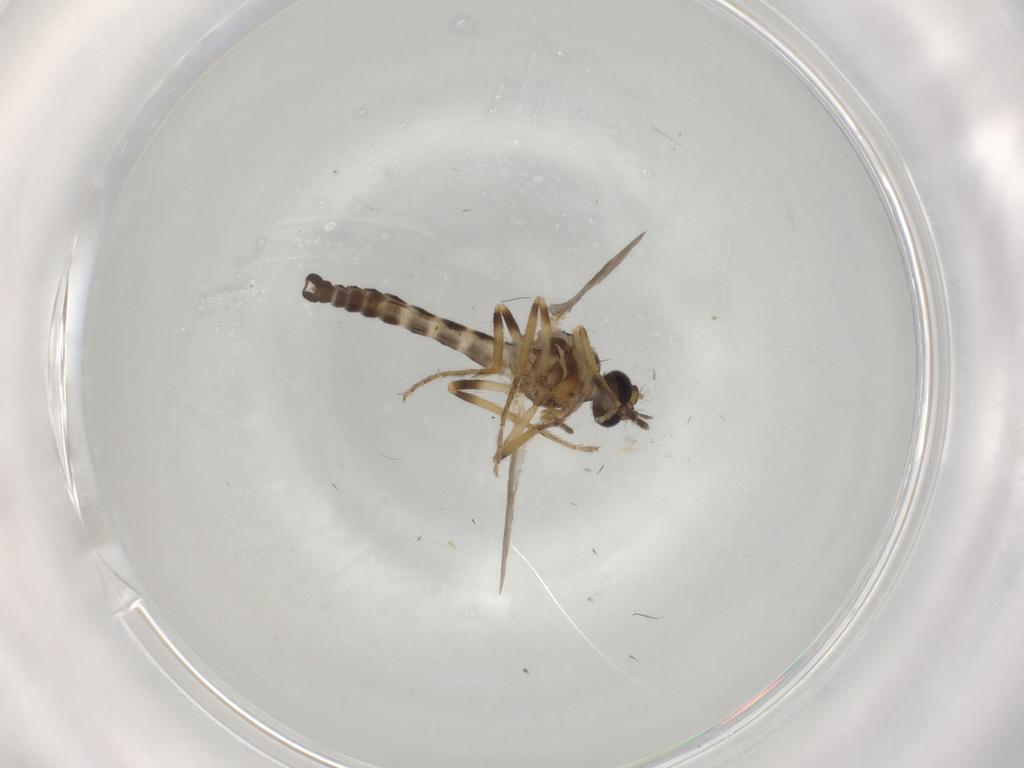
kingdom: Animalia
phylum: Arthropoda
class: Insecta
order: Diptera
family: Ceratopogonidae
